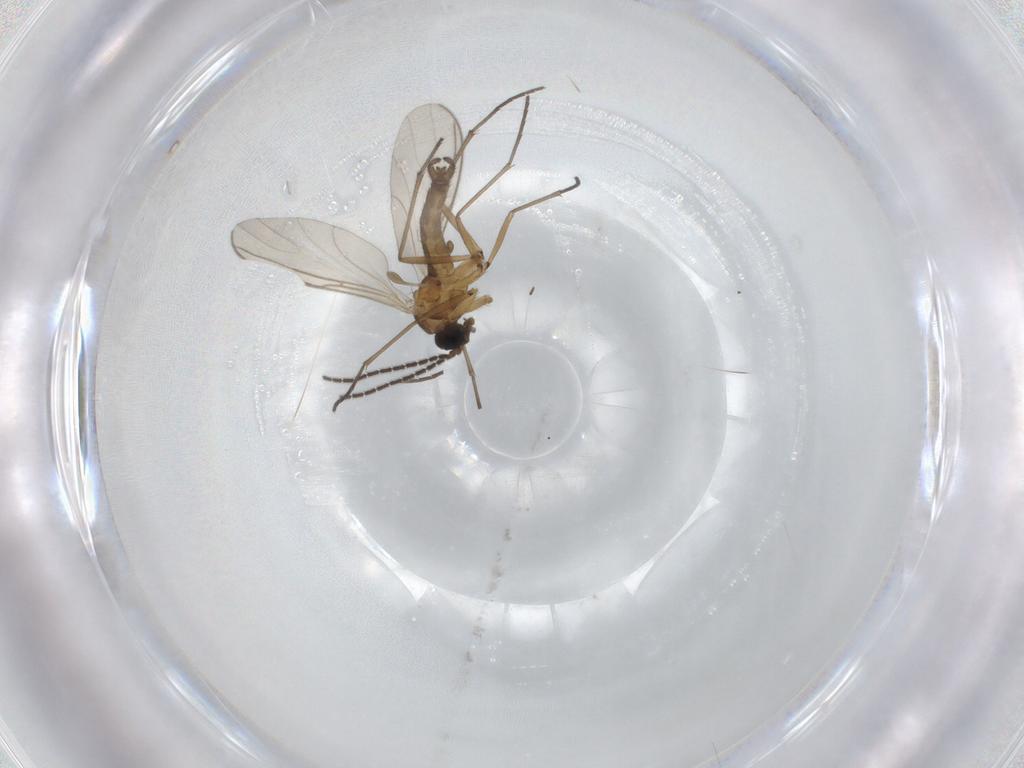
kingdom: Animalia
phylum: Arthropoda
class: Insecta
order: Diptera
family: Sciaridae
